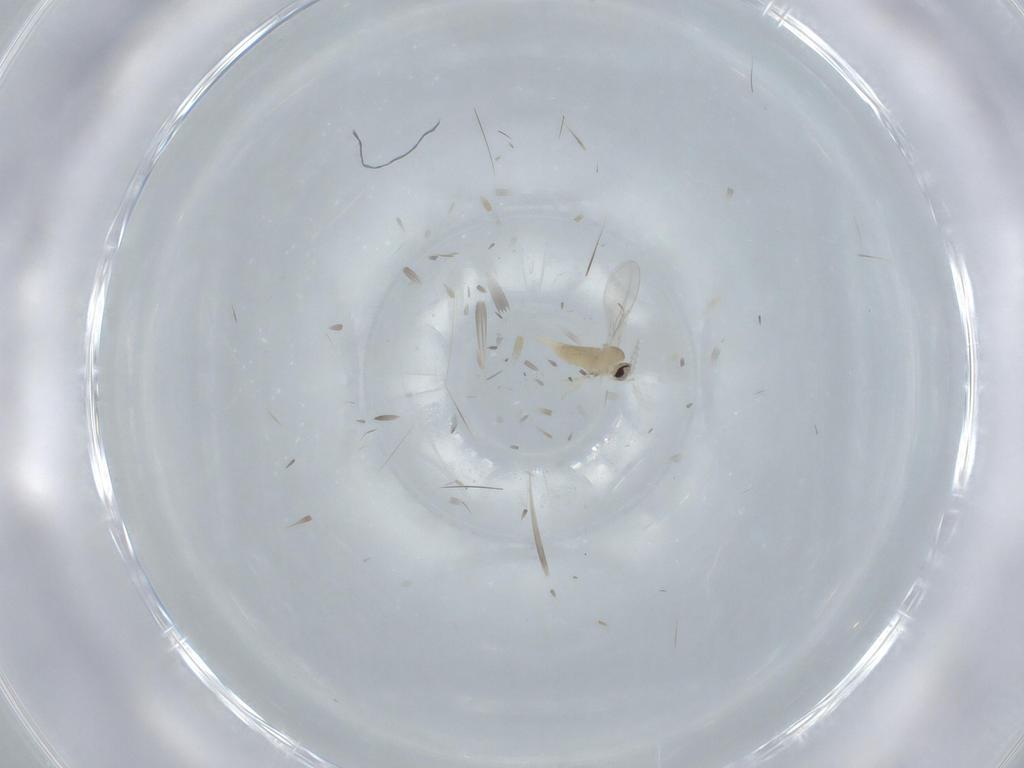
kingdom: Animalia
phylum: Arthropoda
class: Insecta
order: Diptera
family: Cecidomyiidae
